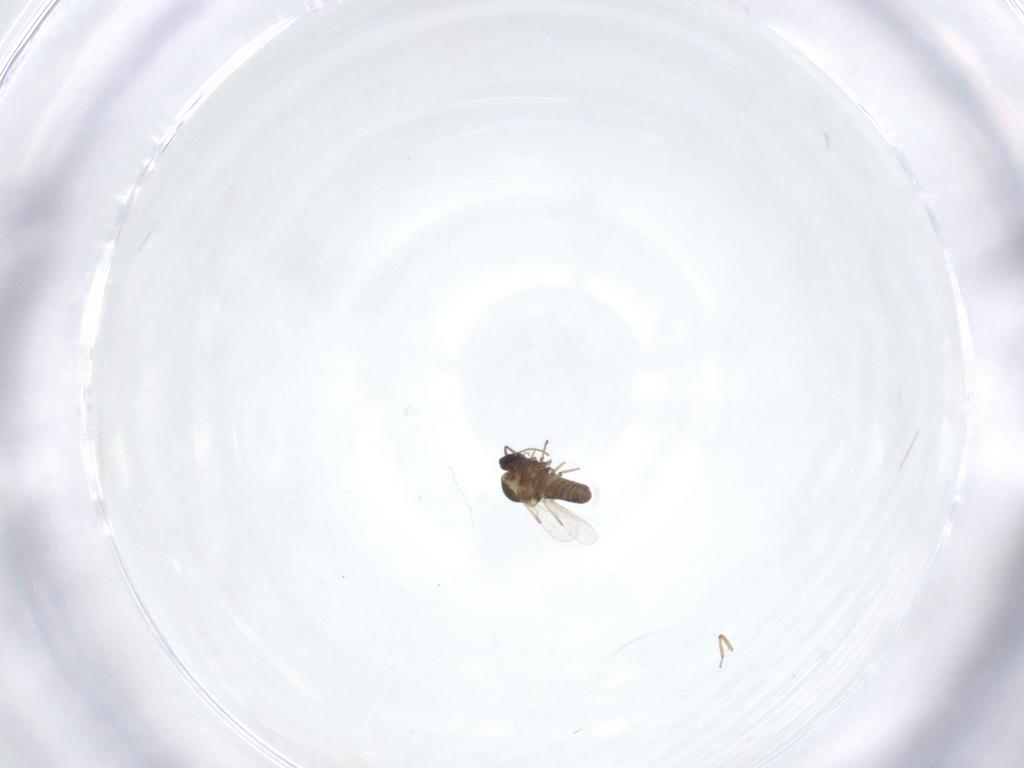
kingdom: Animalia
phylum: Arthropoda
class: Insecta
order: Diptera
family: Ceratopogonidae
